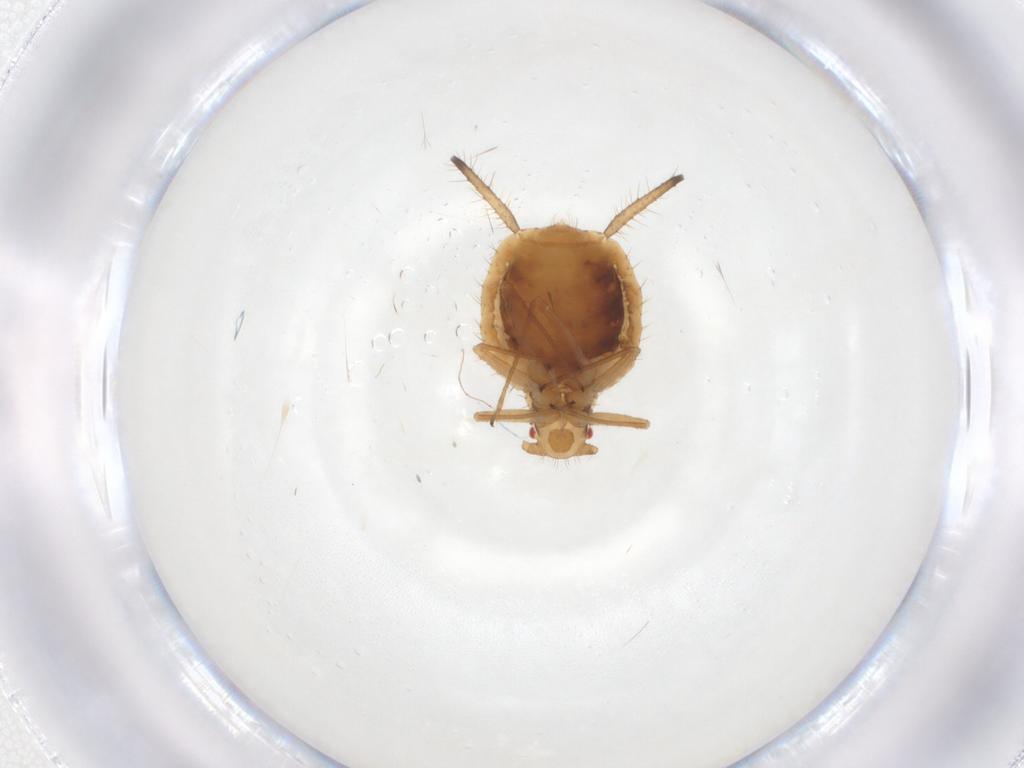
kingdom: Animalia
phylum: Arthropoda
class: Insecta
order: Hemiptera
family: Aphididae
